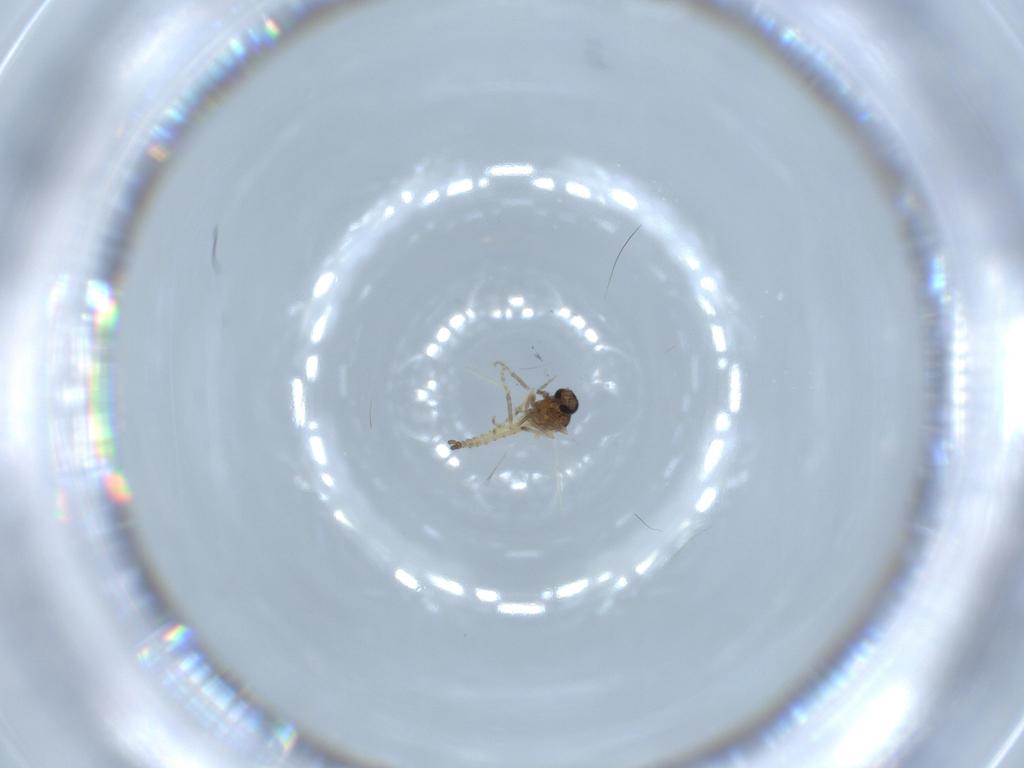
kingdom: Animalia
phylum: Arthropoda
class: Insecta
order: Diptera
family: Ceratopogonidae
